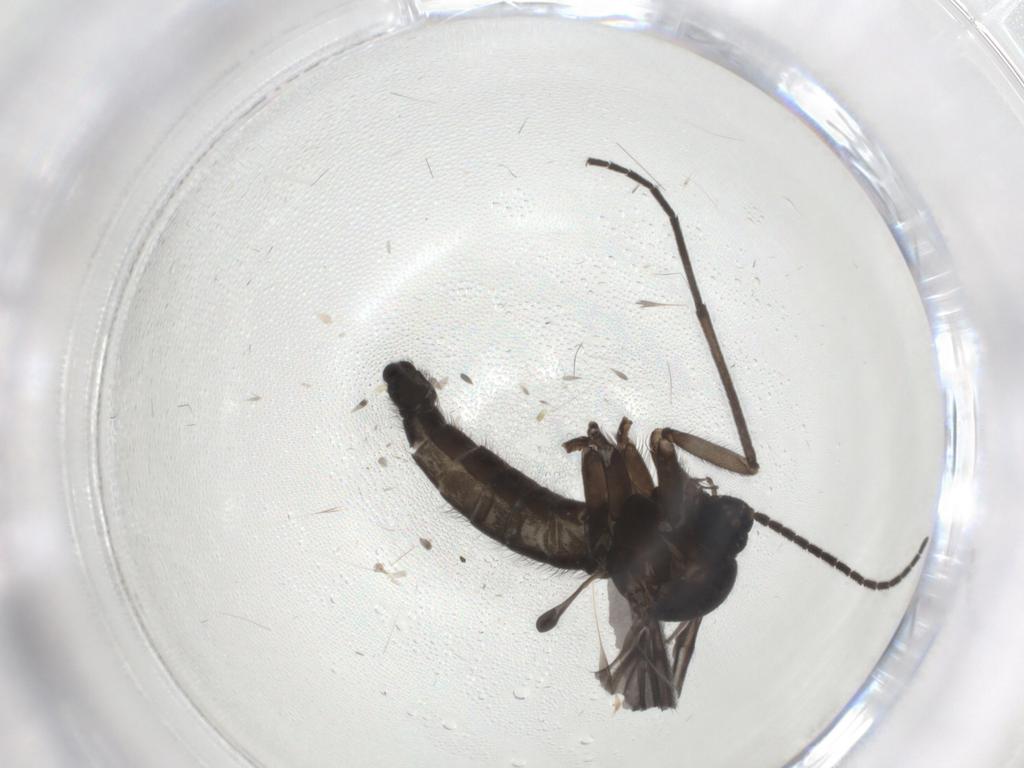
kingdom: Animalia
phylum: Arthropoda
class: Insecta
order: Diptera
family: Sciaridae
